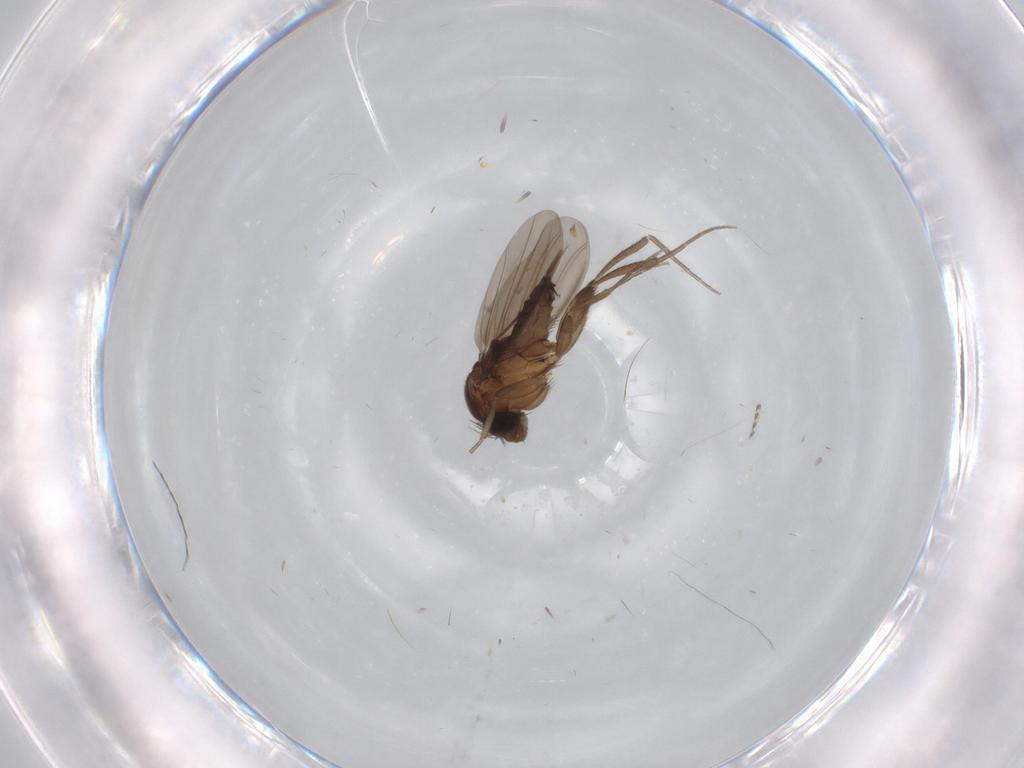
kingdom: Animalia
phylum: Arthropoda
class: Insecta
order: Diptera
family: Phoridae
